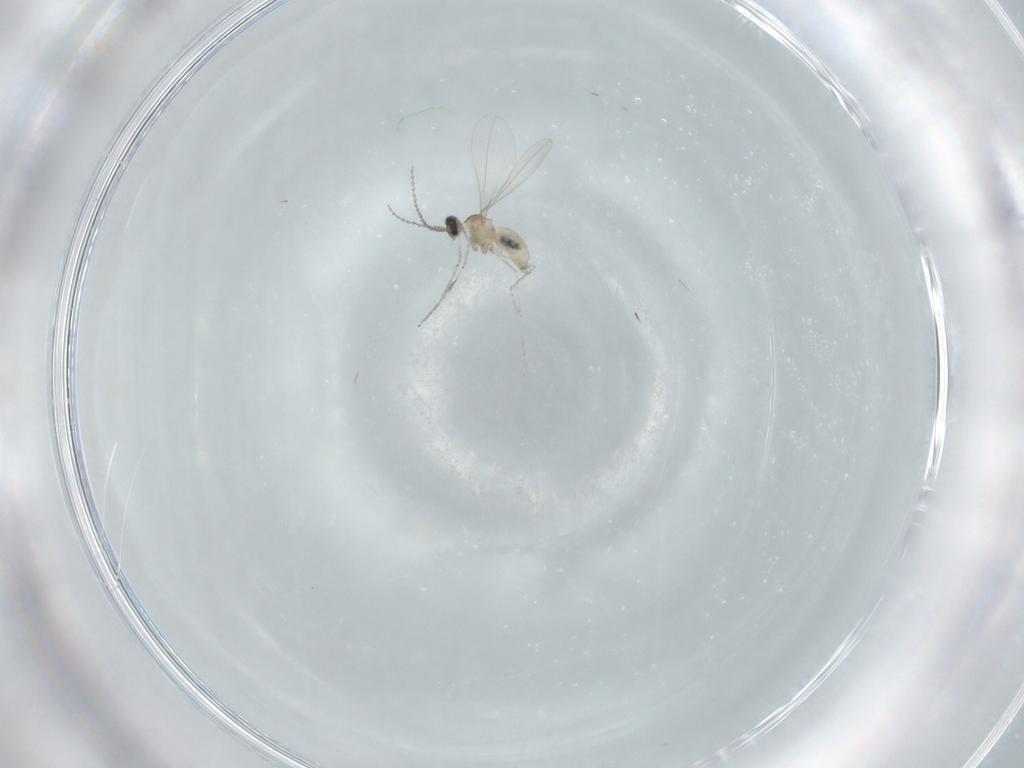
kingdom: Animalia
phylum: Arthropoda
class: Insecta
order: Diptera
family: Cecidomyiidae
